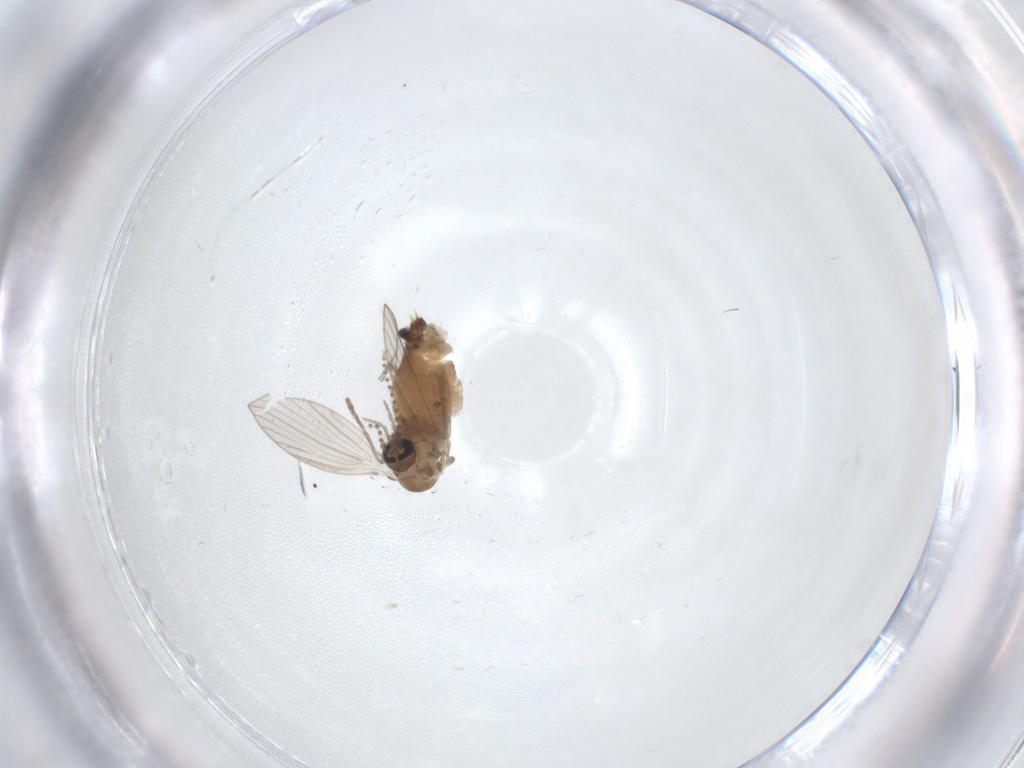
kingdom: Animalia
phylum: Arthropoda
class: Insecta
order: Diptera
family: Psychodidae
